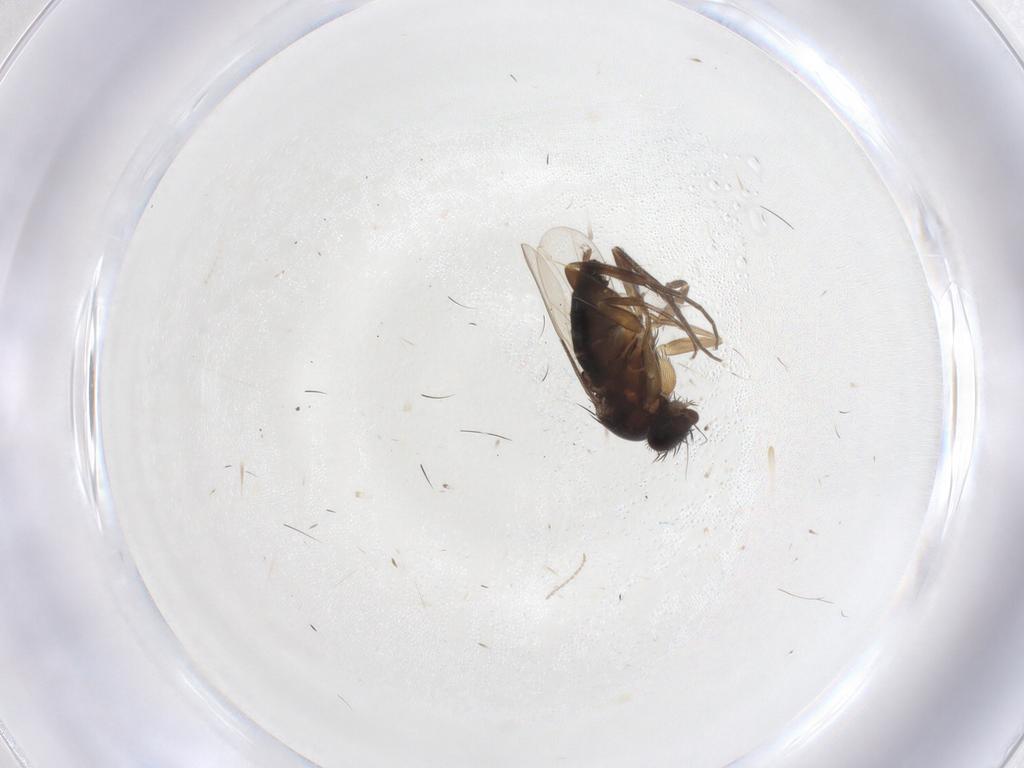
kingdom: Animalia
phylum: Arthropoda
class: Insecta
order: Diptera
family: Phoridae
